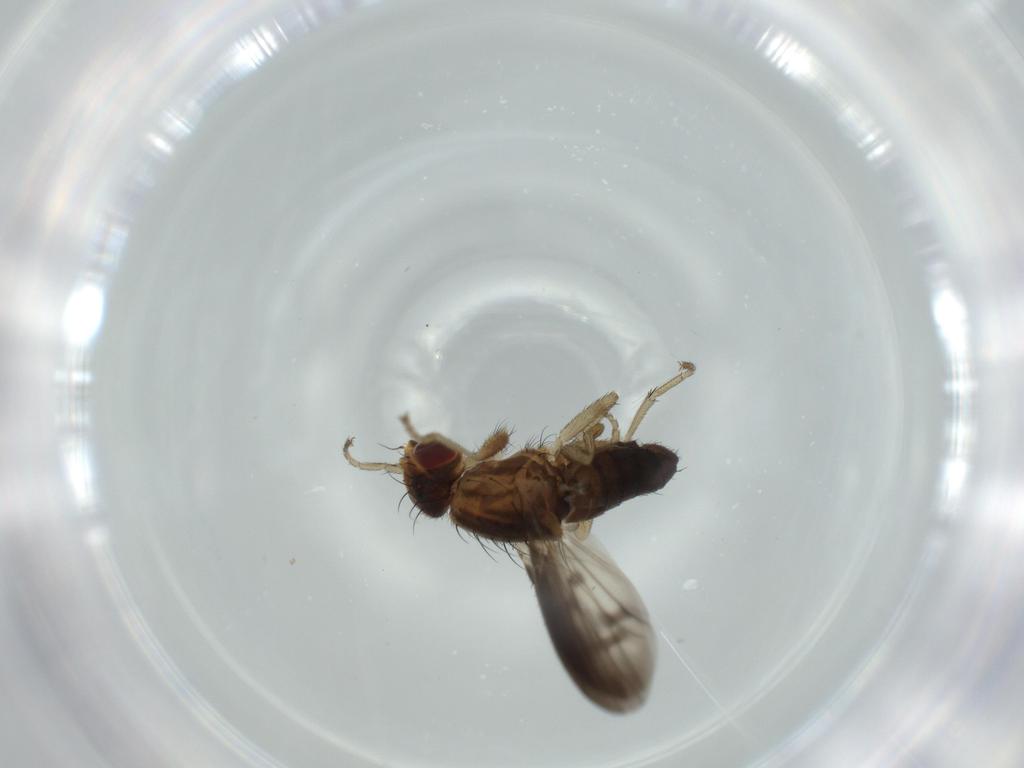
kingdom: Animalia
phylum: Arthropoda
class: Insecta
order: Diptera
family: Heleomyzidae
